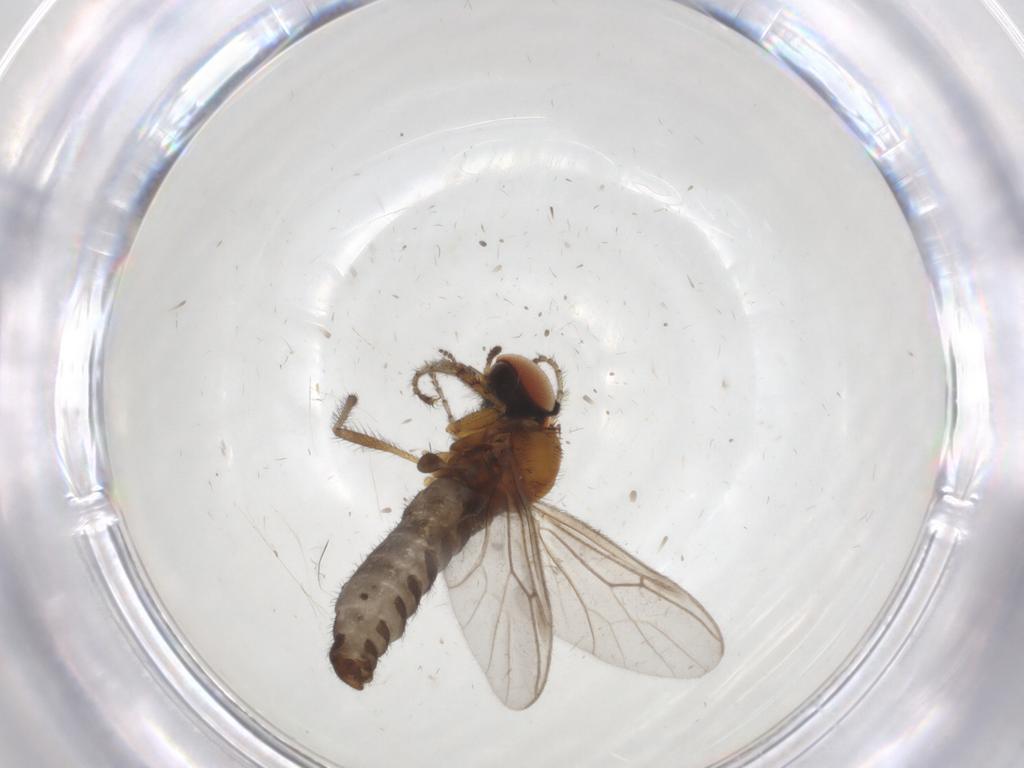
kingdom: Animalia
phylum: Arthropoda
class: Insecta
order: Diptera
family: Bibionidae
